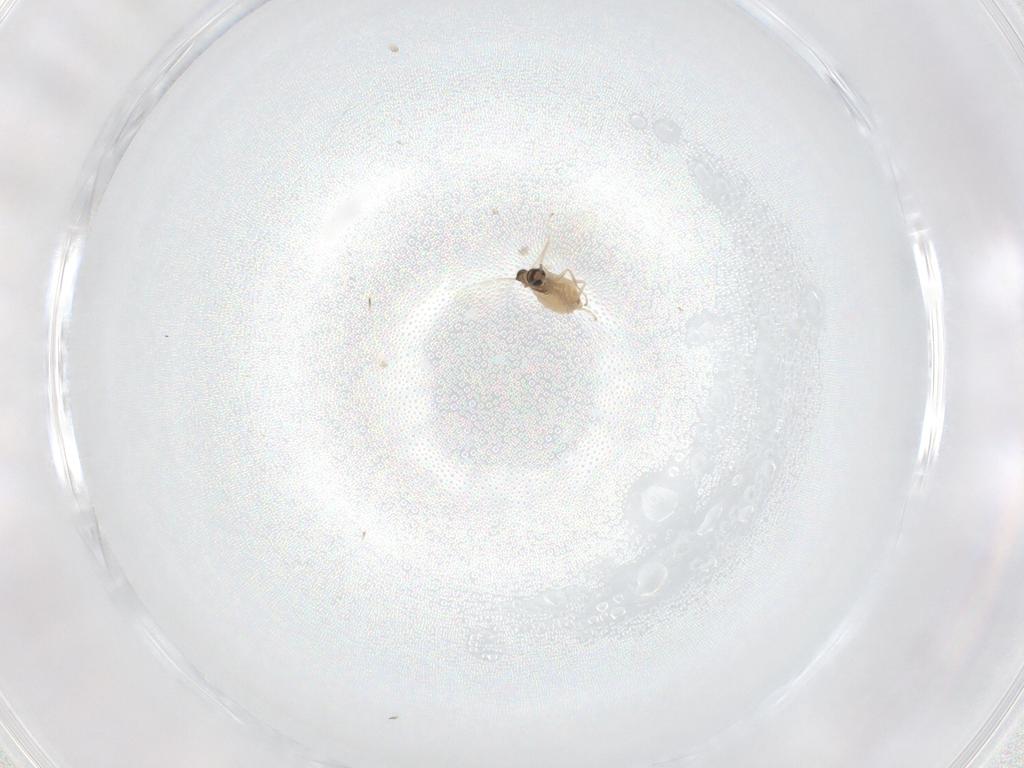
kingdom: Animalia
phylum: Arthropoda
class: Insecta
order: Diptera
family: Cecidomyiidae
